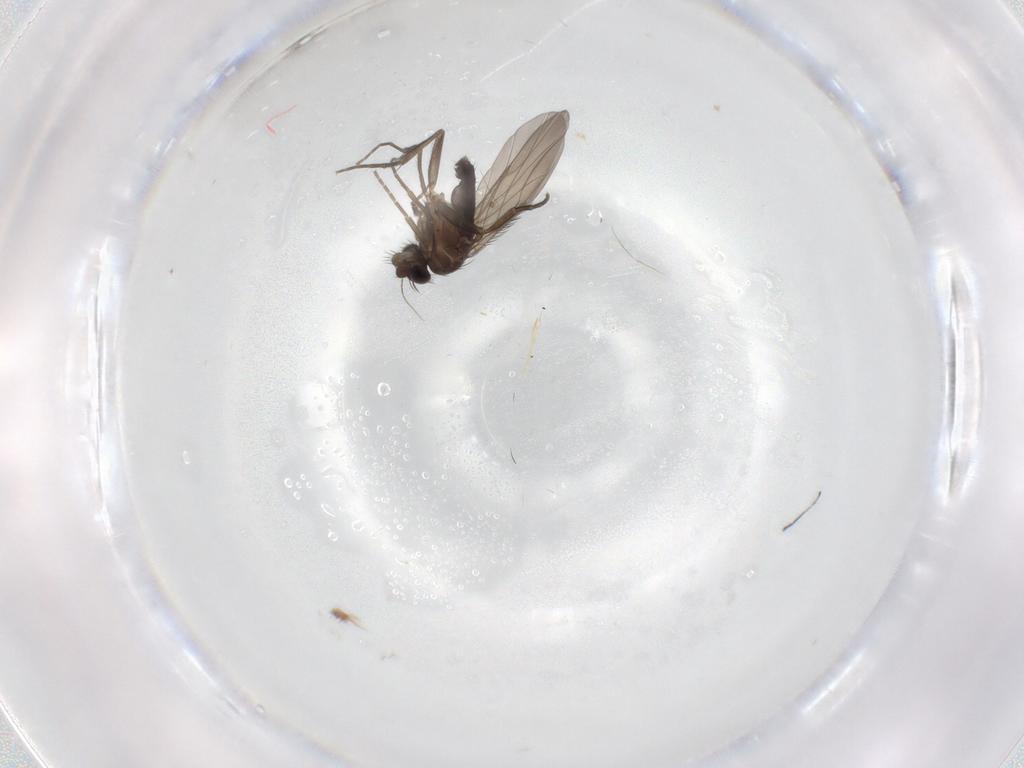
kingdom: Animalia
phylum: Arthropoda
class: Insecta
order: Diptera
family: Phoridae
